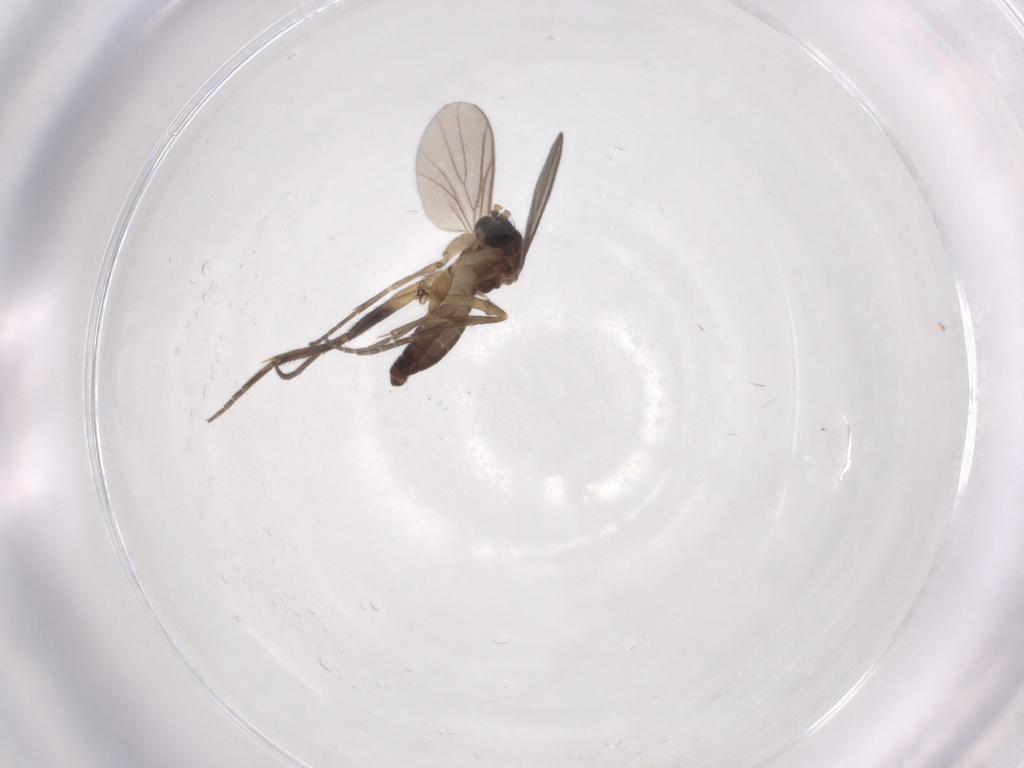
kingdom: Animalia
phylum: Arthropoda
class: Insecta
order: Diptera
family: Mycetophilidae
